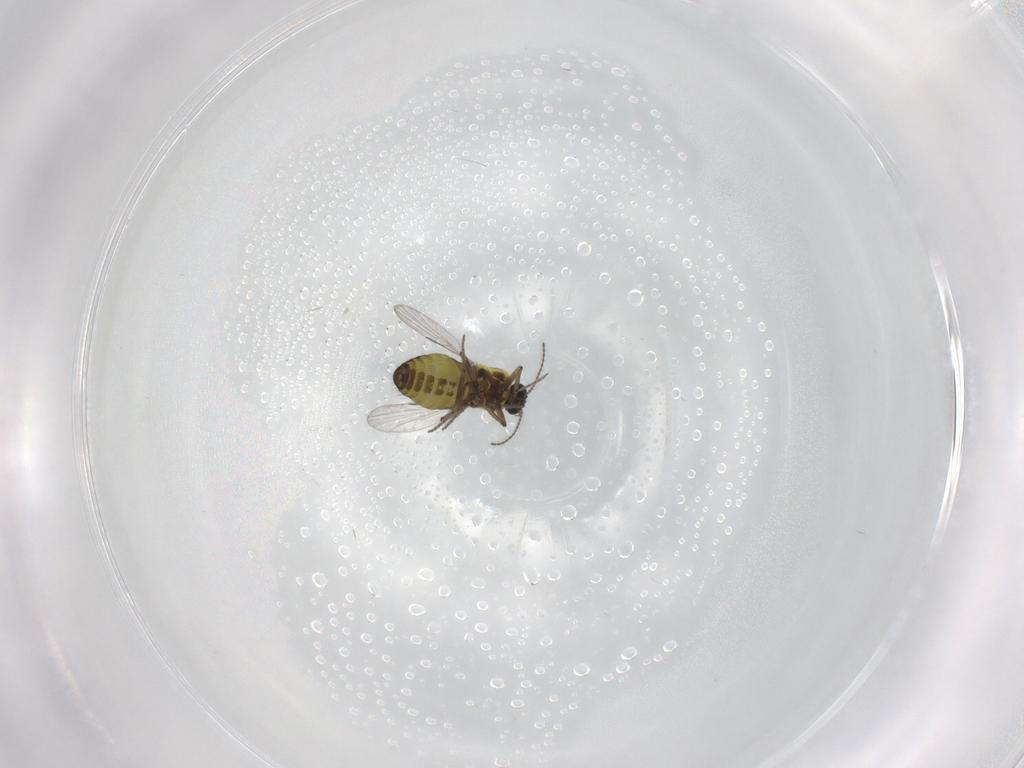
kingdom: Animalia
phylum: Arthropoda
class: Insecta
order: Diptera
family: Ceratopogonidae
